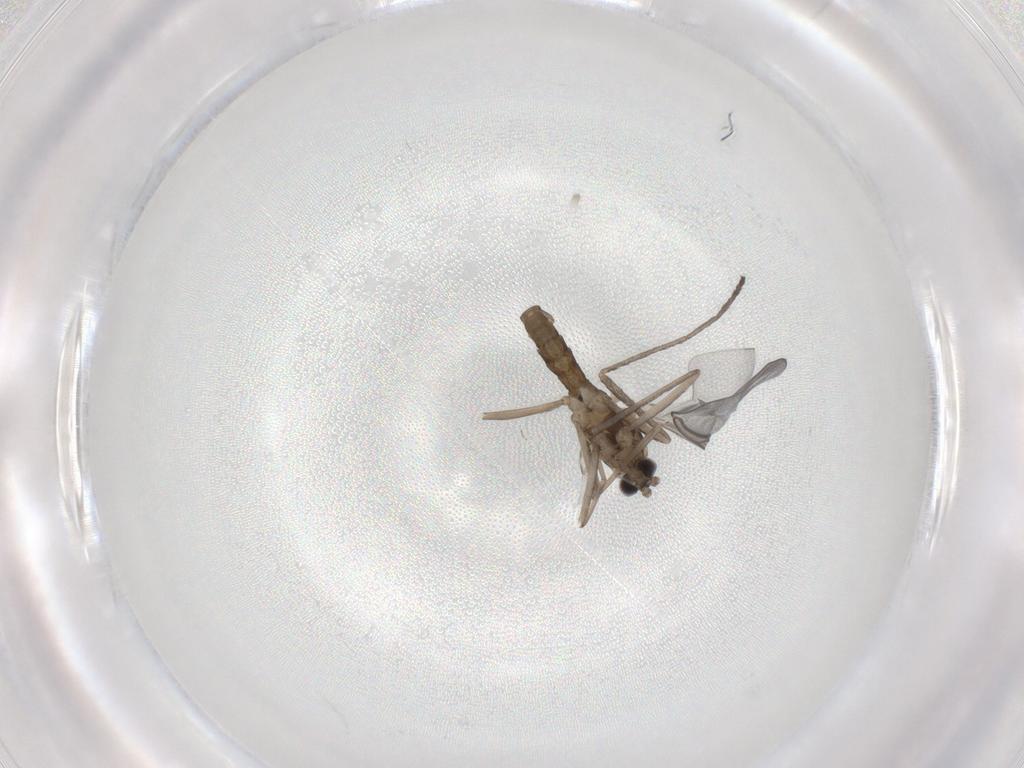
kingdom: Animalia
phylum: Arthropoda
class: Insecta
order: Diptera
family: Cecidomyiidae
